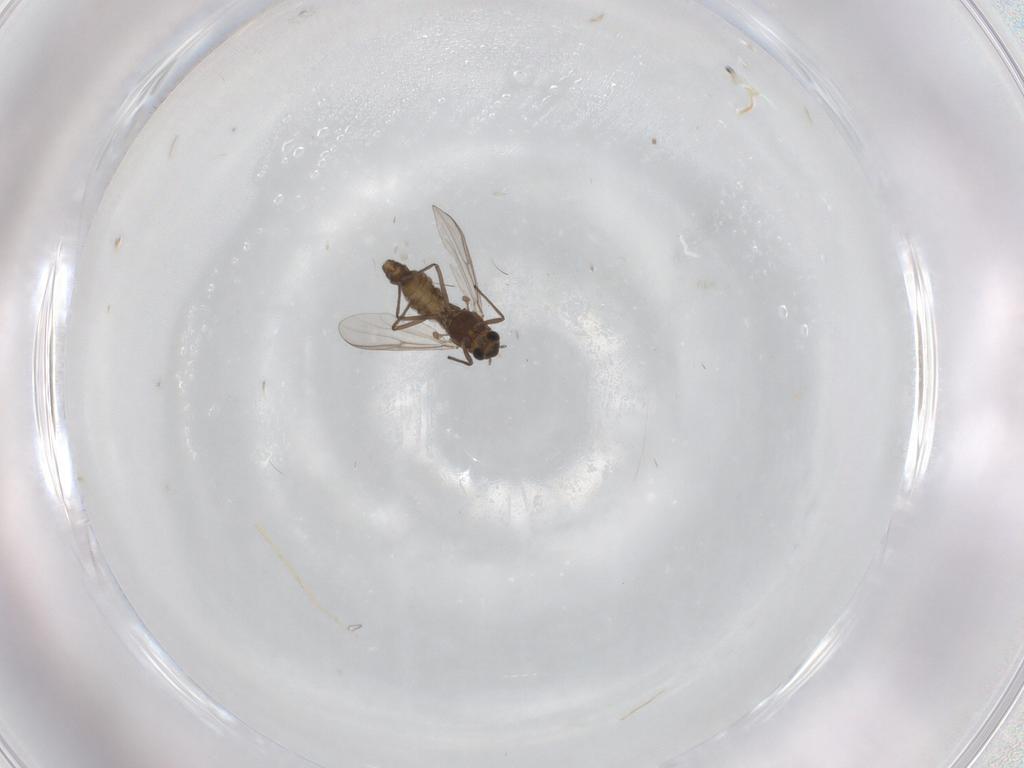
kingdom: Animalia
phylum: Arthropoda
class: Insecta
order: Diptera
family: Chironomidae
